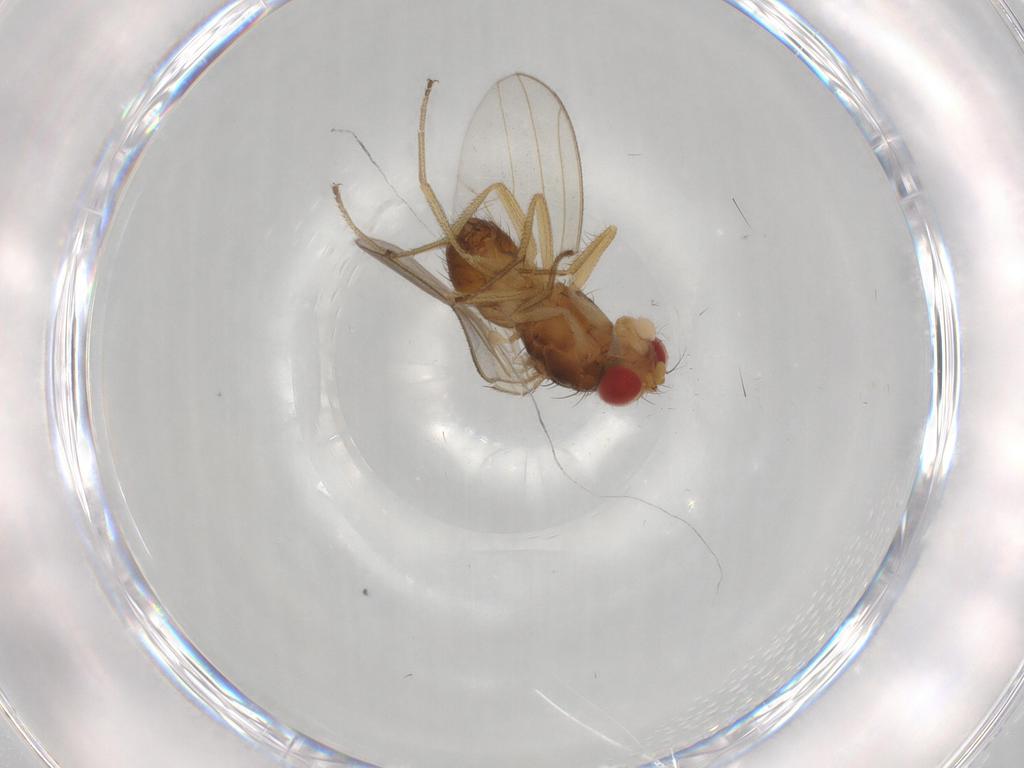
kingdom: Animalia
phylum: Arthropoda
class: Insecta
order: Diptera
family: Drosophilidae
